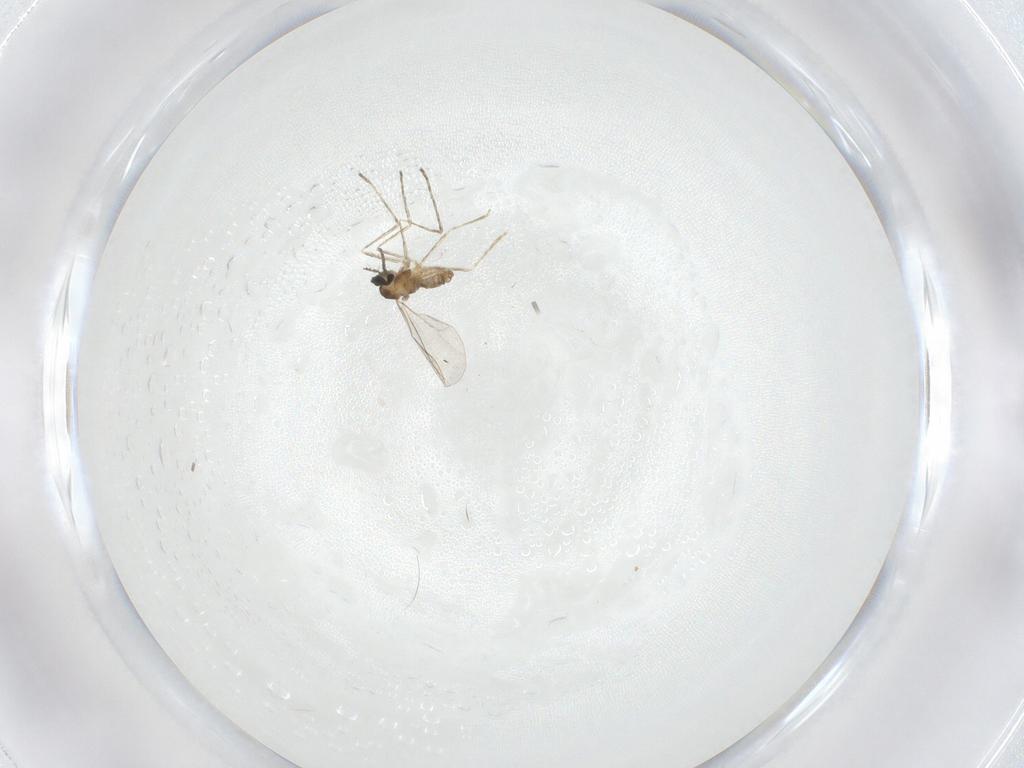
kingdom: Animalia
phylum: Arthropoda
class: Insecta
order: Diptera
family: Cecidomyiidae
